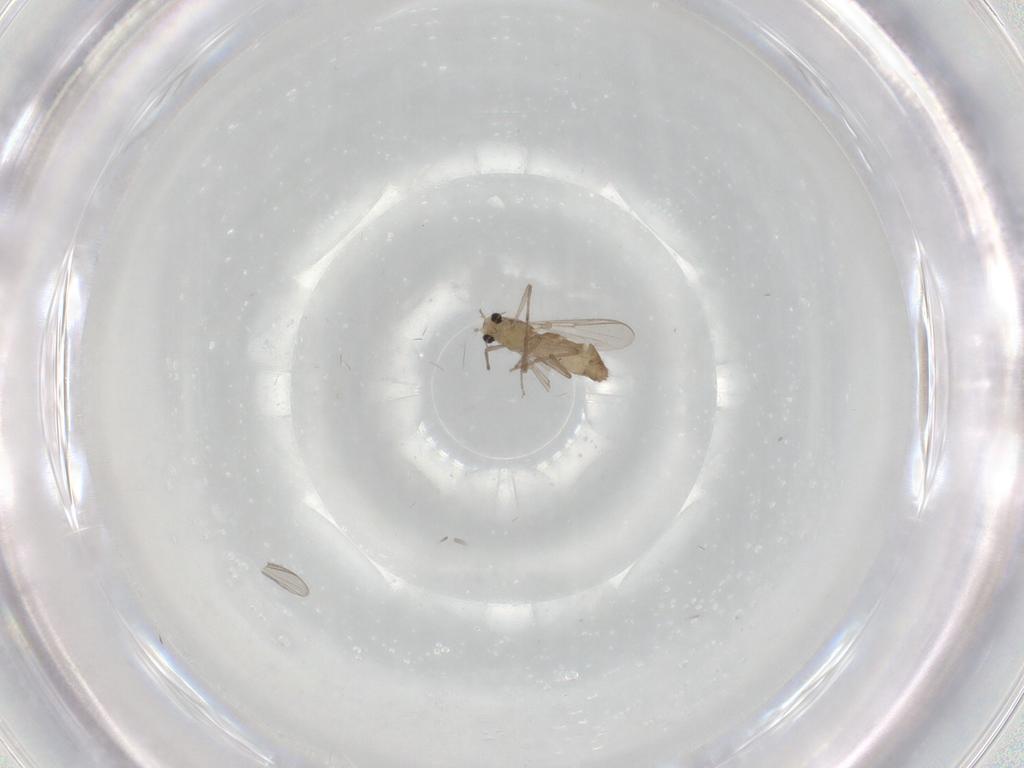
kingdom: Animalia
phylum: Arthropoda
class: Insecta
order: Diptera
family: Chironomidae
